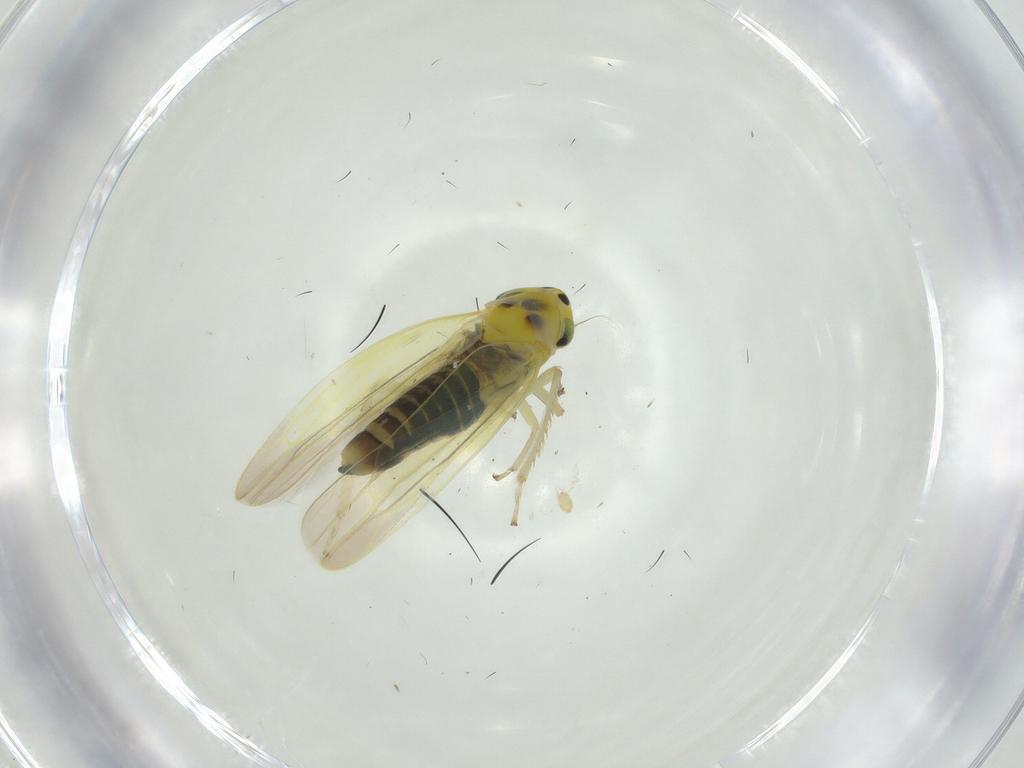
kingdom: Animalia
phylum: Arthropoda
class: Insecta
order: Hemiptera
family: Cicadellidae
